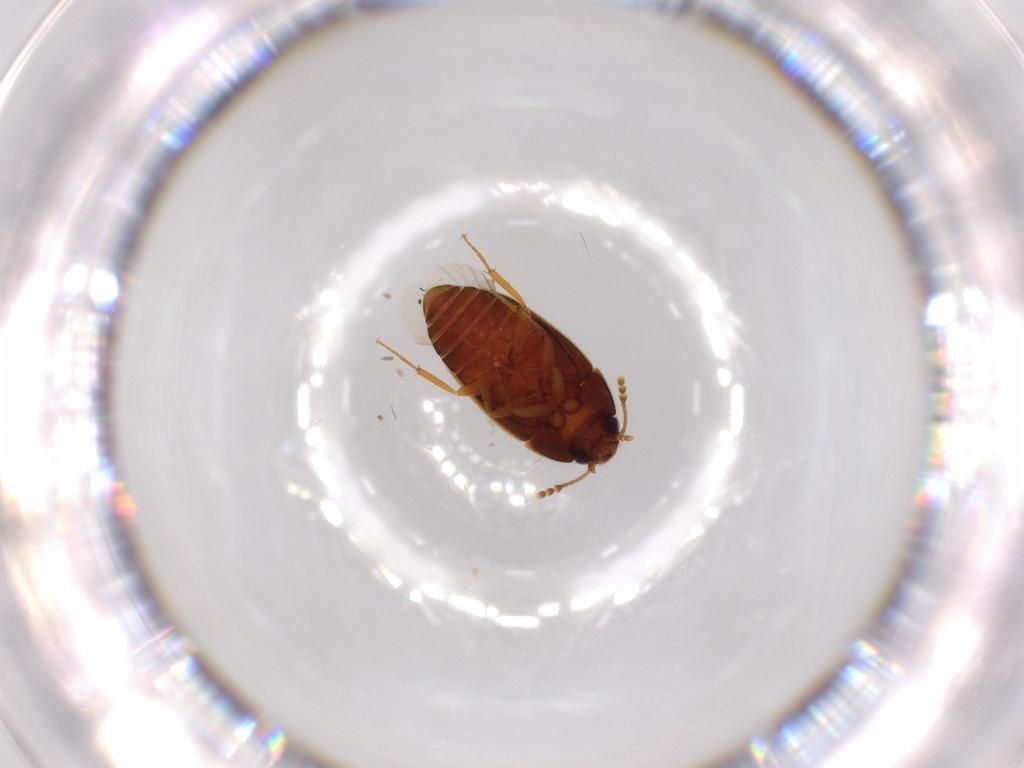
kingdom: Animalia
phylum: Arthropoda
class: Insecta
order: Coleoptera
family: Mycetophagidae
